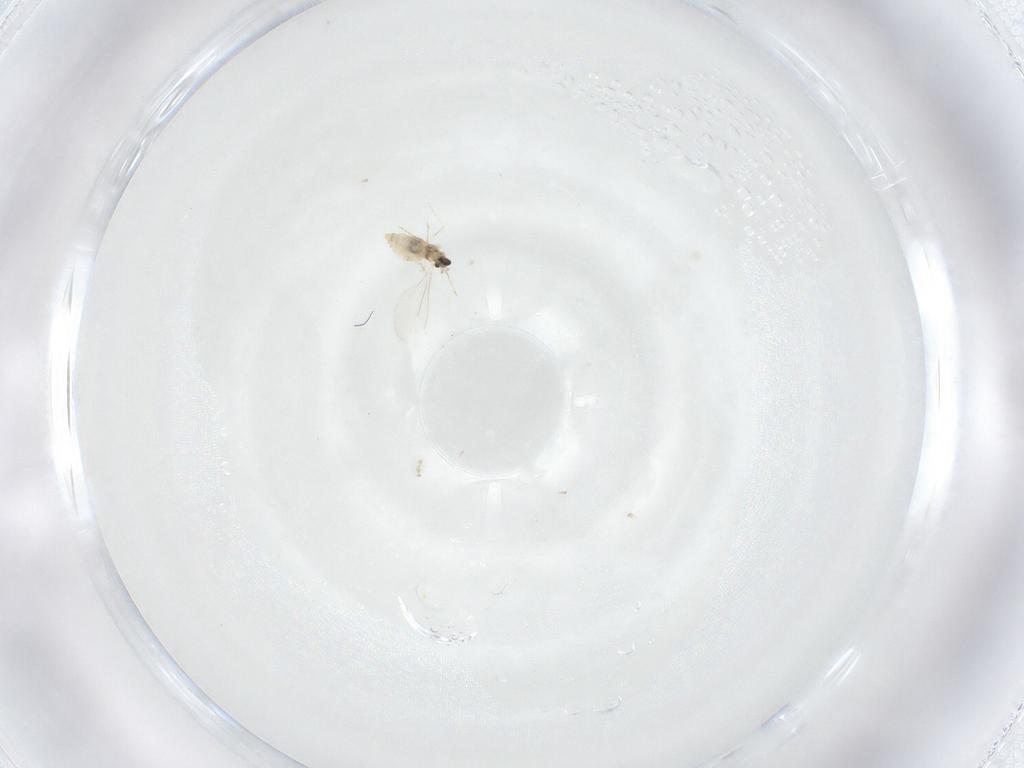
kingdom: Animalia
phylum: Arthropoda
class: Insecta
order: Diptera
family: Cecidomyiidae
